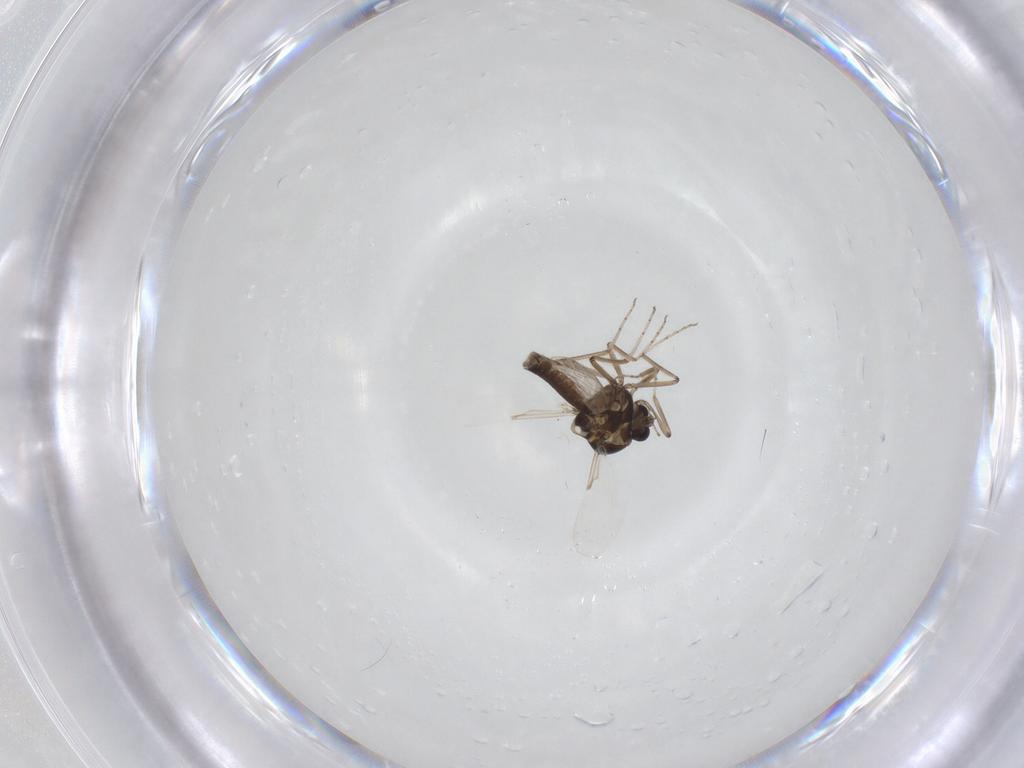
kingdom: Animalia
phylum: Arthropoda
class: Insecta
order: Diptera
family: Ceratopogonidae
